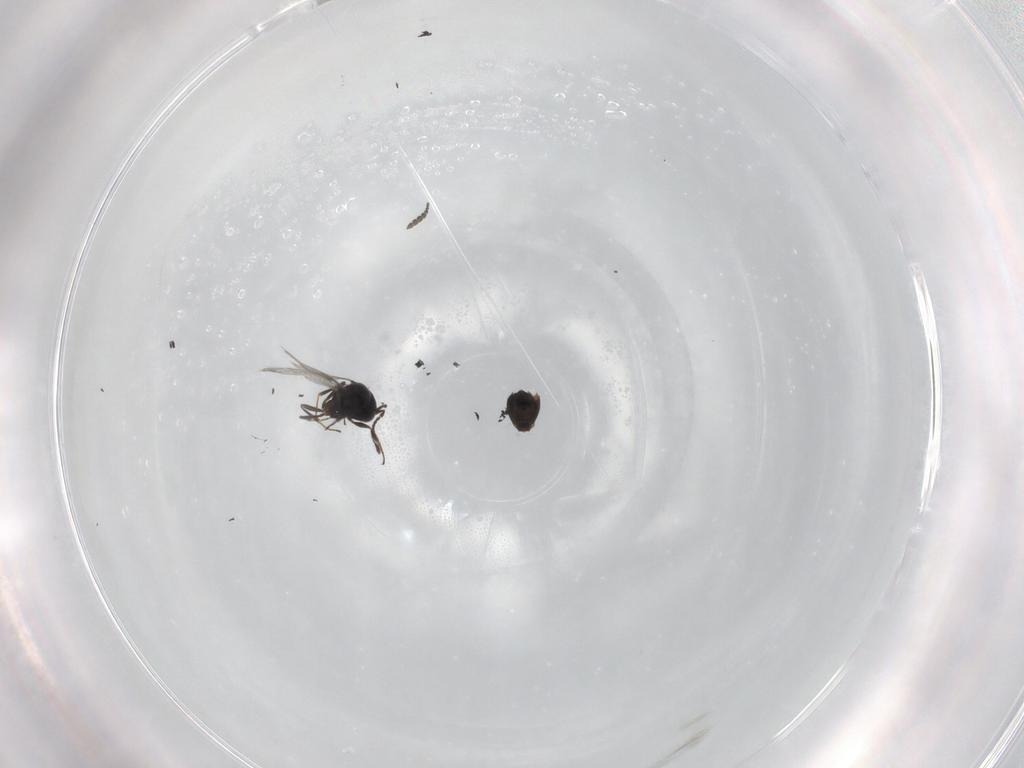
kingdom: Animalia
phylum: Arthropoda
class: Insecta
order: Hymenoptera
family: Scelionidae
